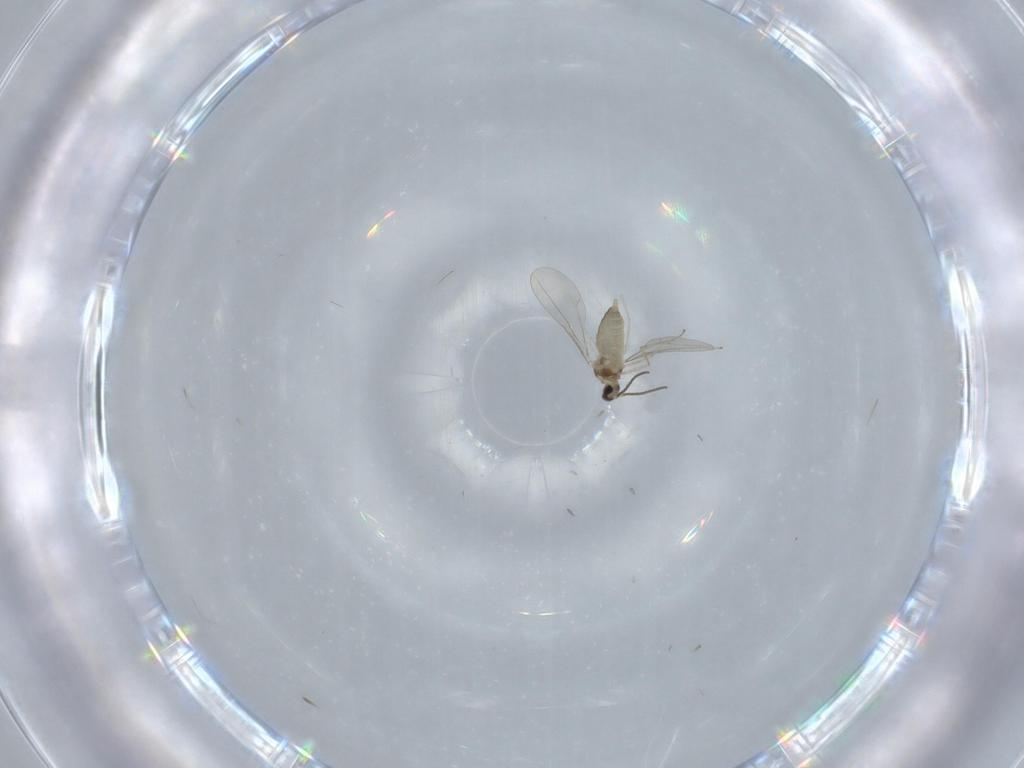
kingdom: Animalia
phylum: Arthropoda
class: Insecta
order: Diptera
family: Cecidomyiidae
